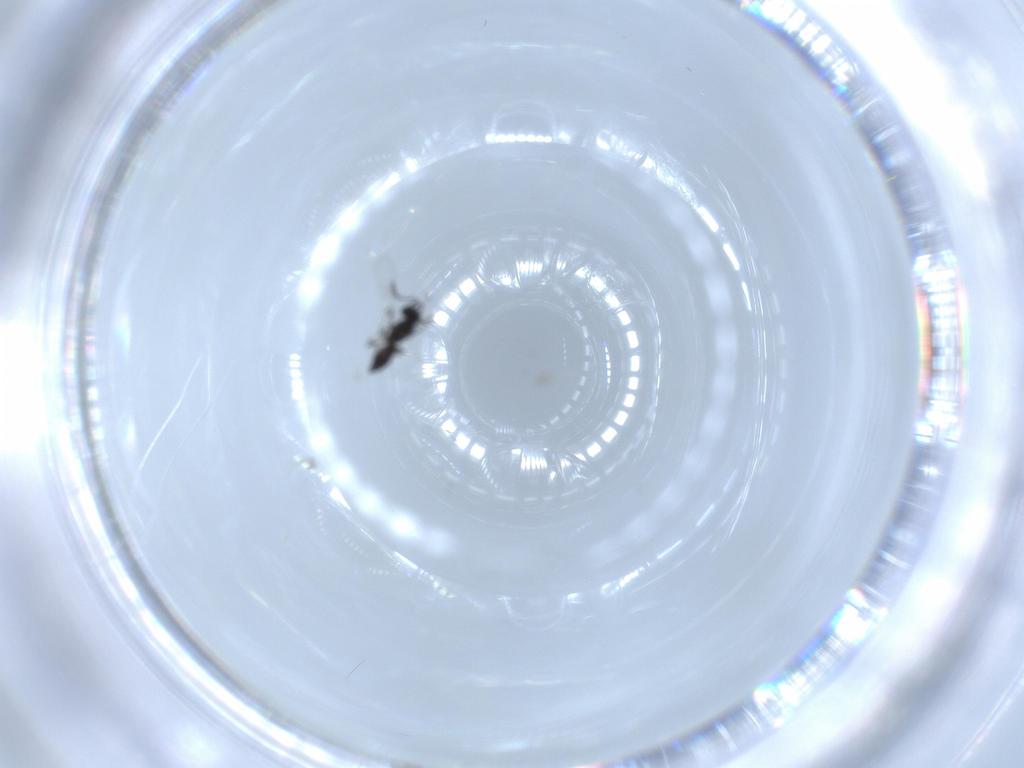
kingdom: Animalia
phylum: Arthropoda
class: Insecta
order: Hymenoptera
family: Scelionidae
